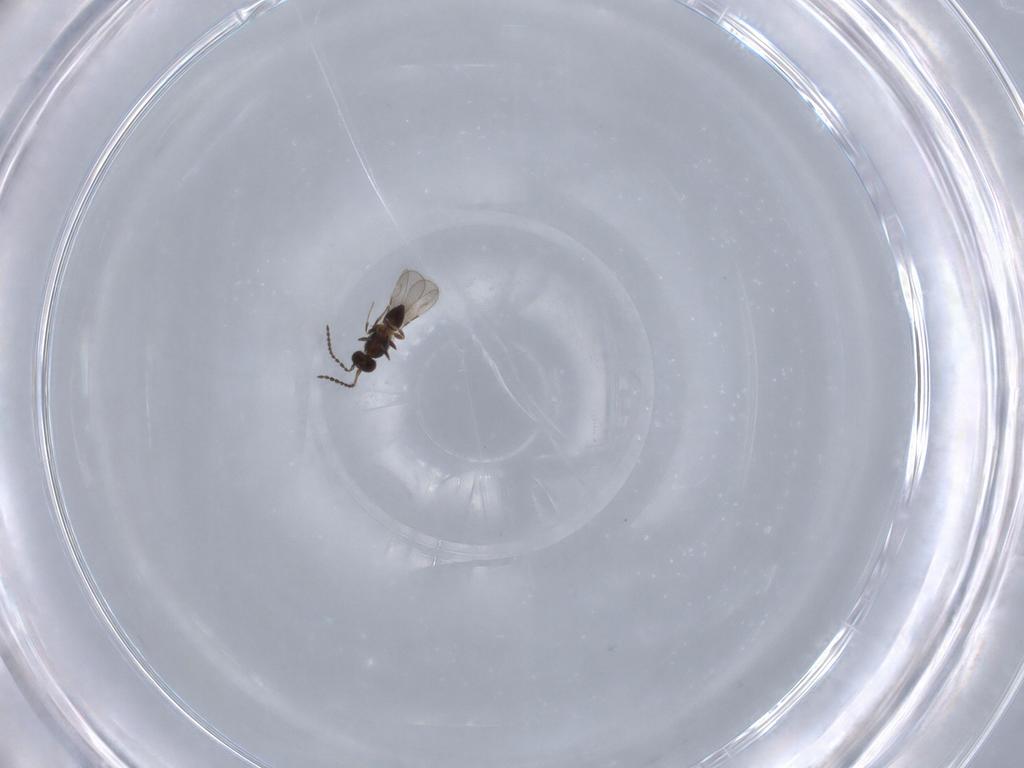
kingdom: Animalia
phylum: Arthropoda
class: Insecta
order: Hymenoptera
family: Ceraphronidae
